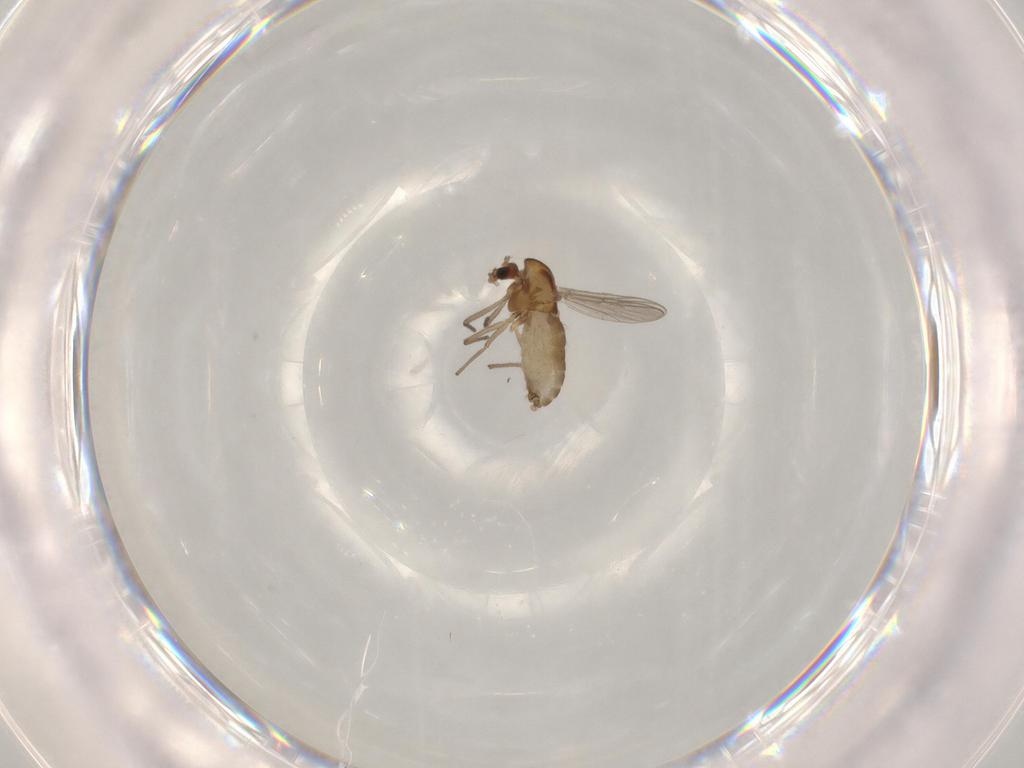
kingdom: Animalia
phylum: Arthropoda
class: Insecta
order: Diptera
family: Chironomidae
